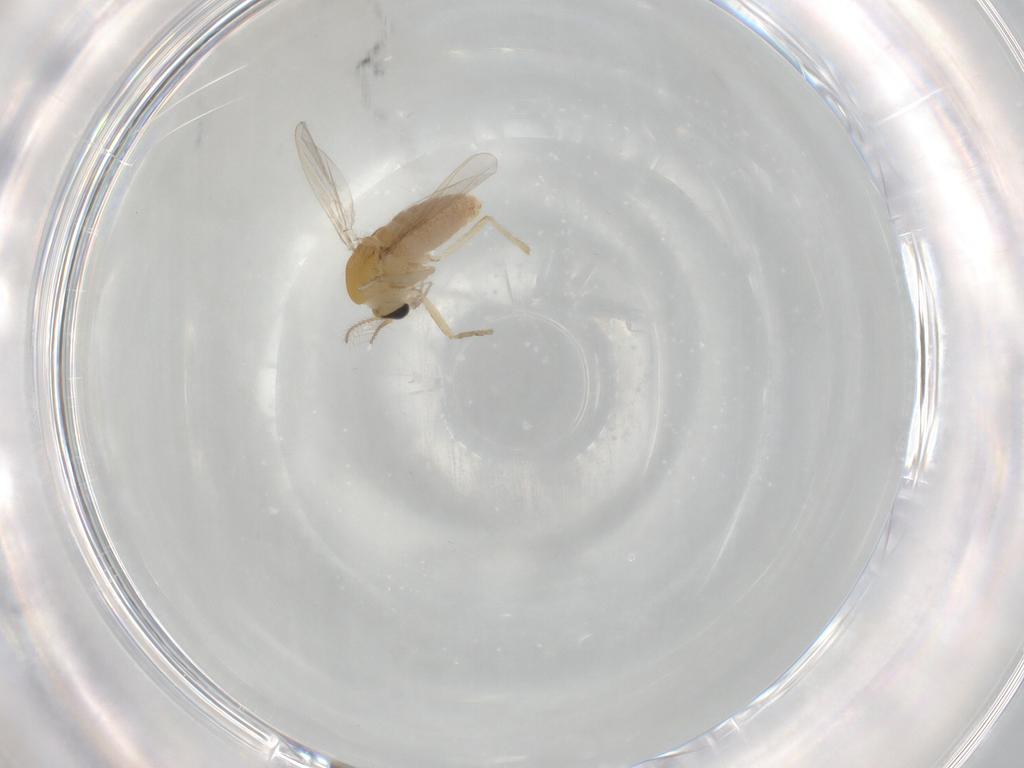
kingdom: Animalia
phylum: Arthropoda
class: Insecta
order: Diptera
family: Chironomidae
